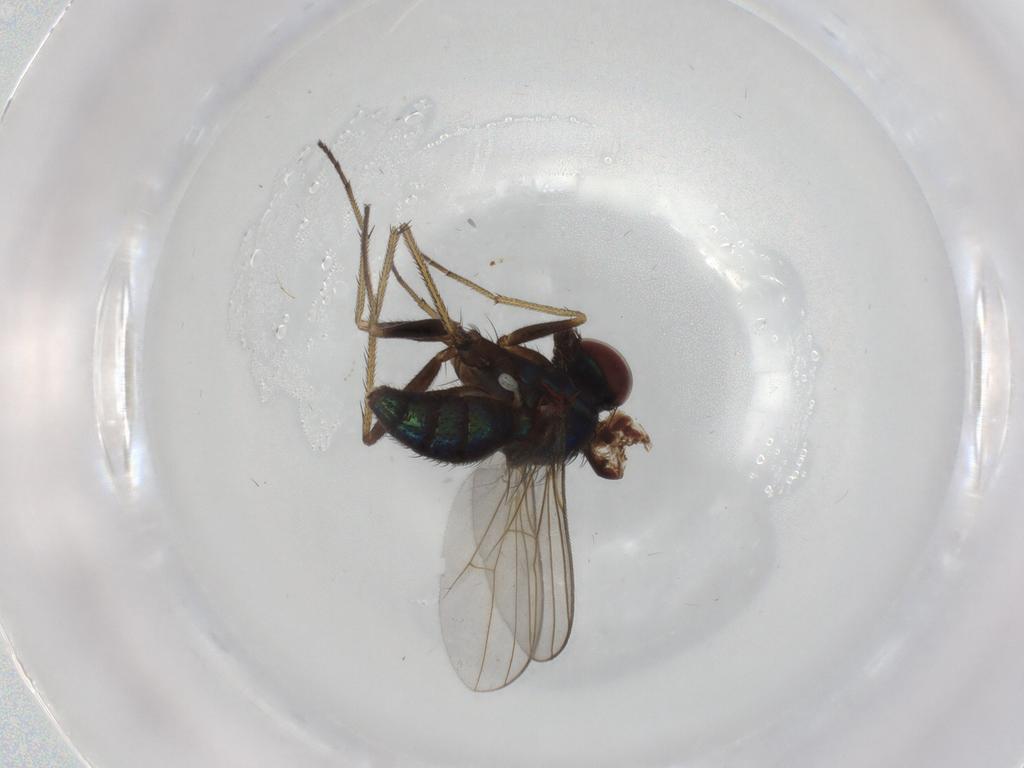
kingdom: Animalia
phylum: Arthropoda
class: Insecta
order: Diptera
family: Dolichopodidae
